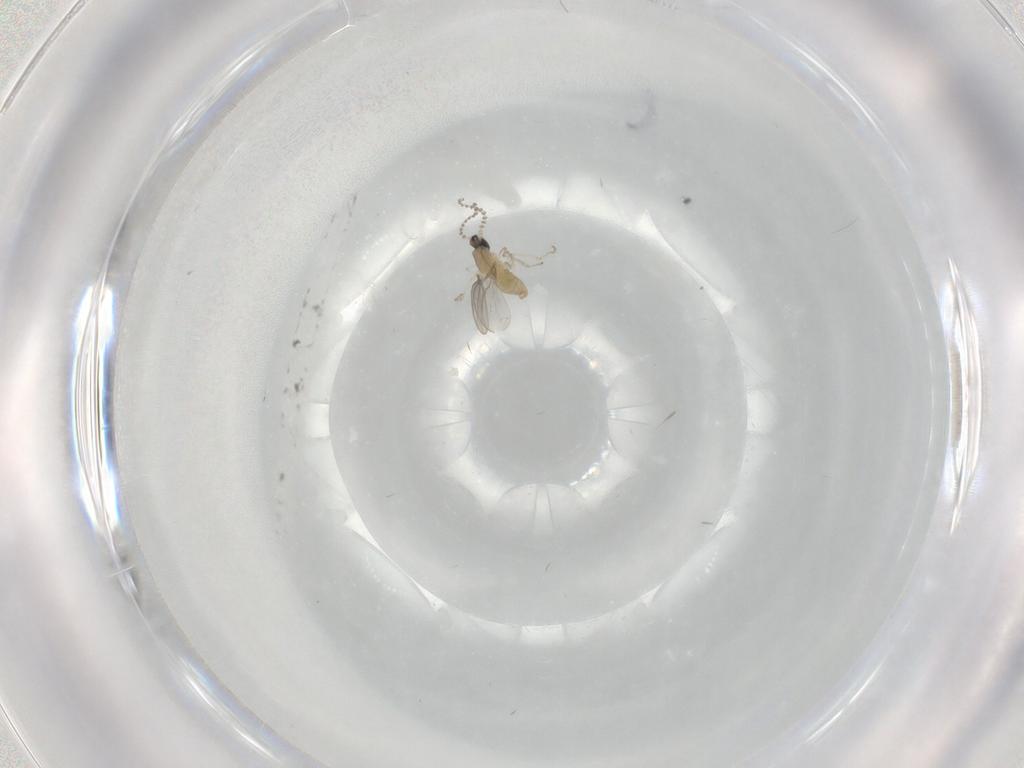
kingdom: Animalia
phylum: Arthropoda
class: Insecta
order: Diptera
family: Cecidomyiidae
